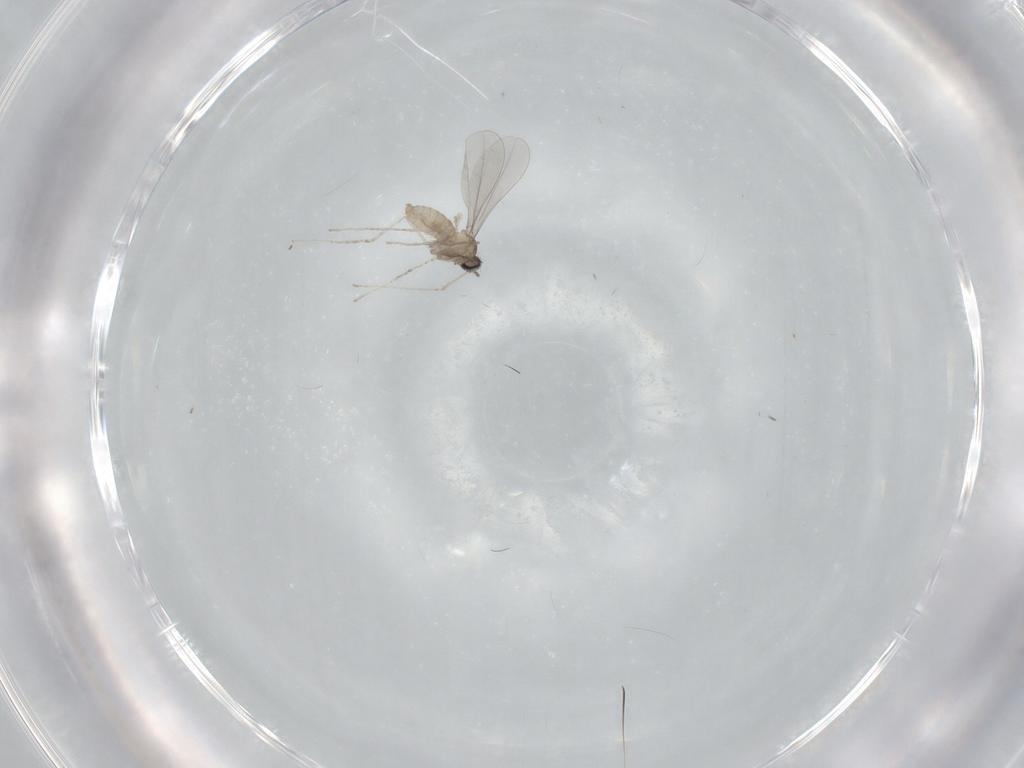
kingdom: Animalia
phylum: Arthropoda
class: Insecta
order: Diptera
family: Cecidomyiidae
